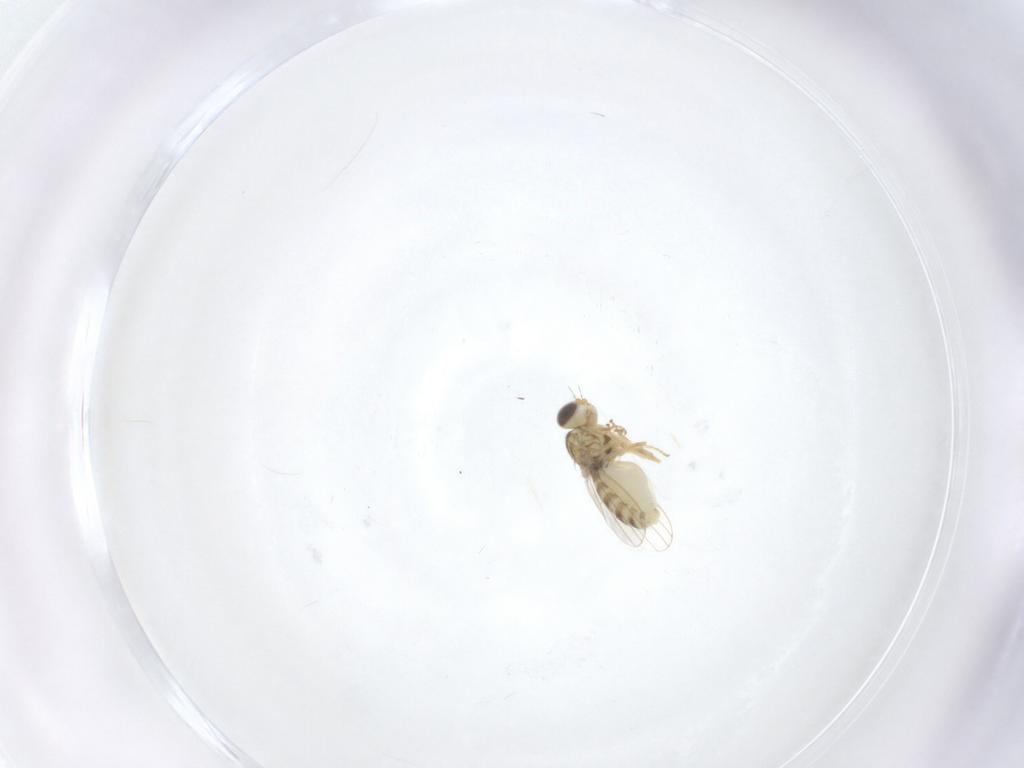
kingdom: Animalia
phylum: Arthropoda
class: Insecta
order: Diptera
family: Chyromyidae
